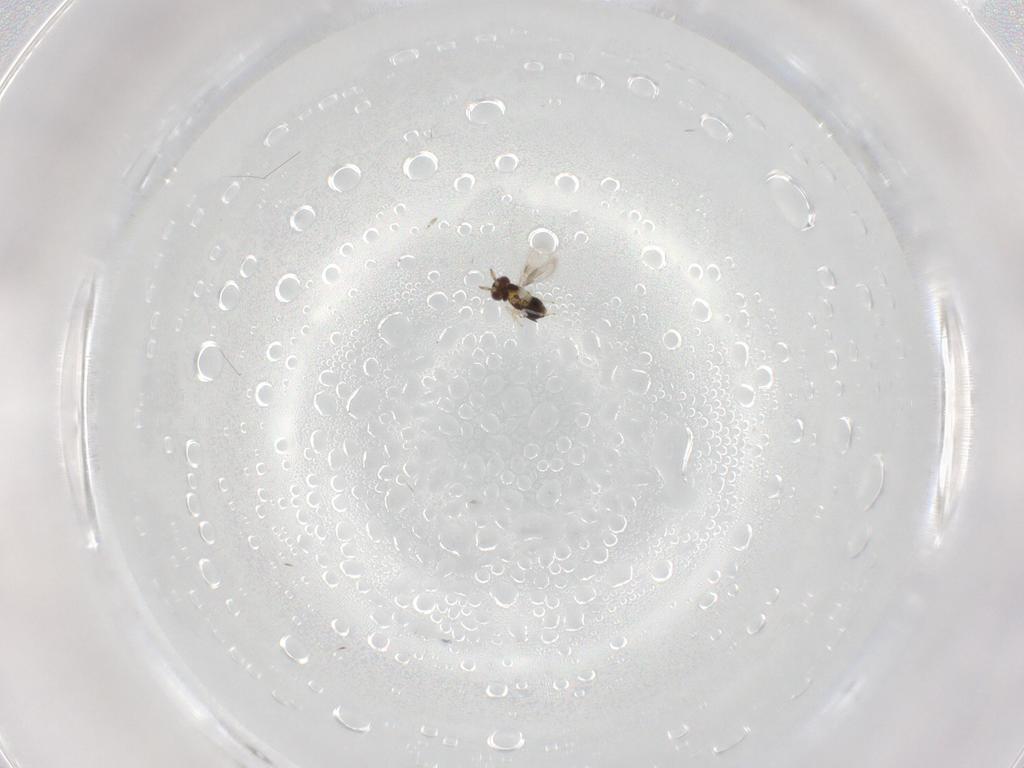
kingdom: Animalia
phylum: Arthropoda
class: Insecta
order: Hymenoptera
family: Aphelinidae
